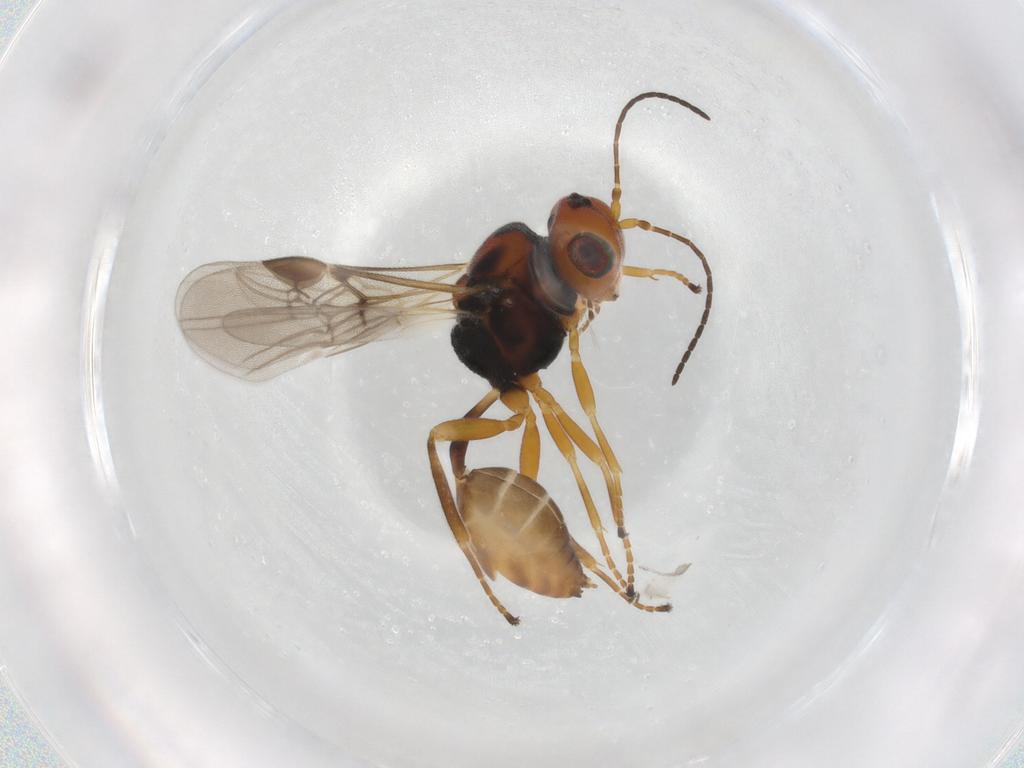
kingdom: Animalia
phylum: Arthropoda
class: Insecta
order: Hymenoptera
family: Braconidae
